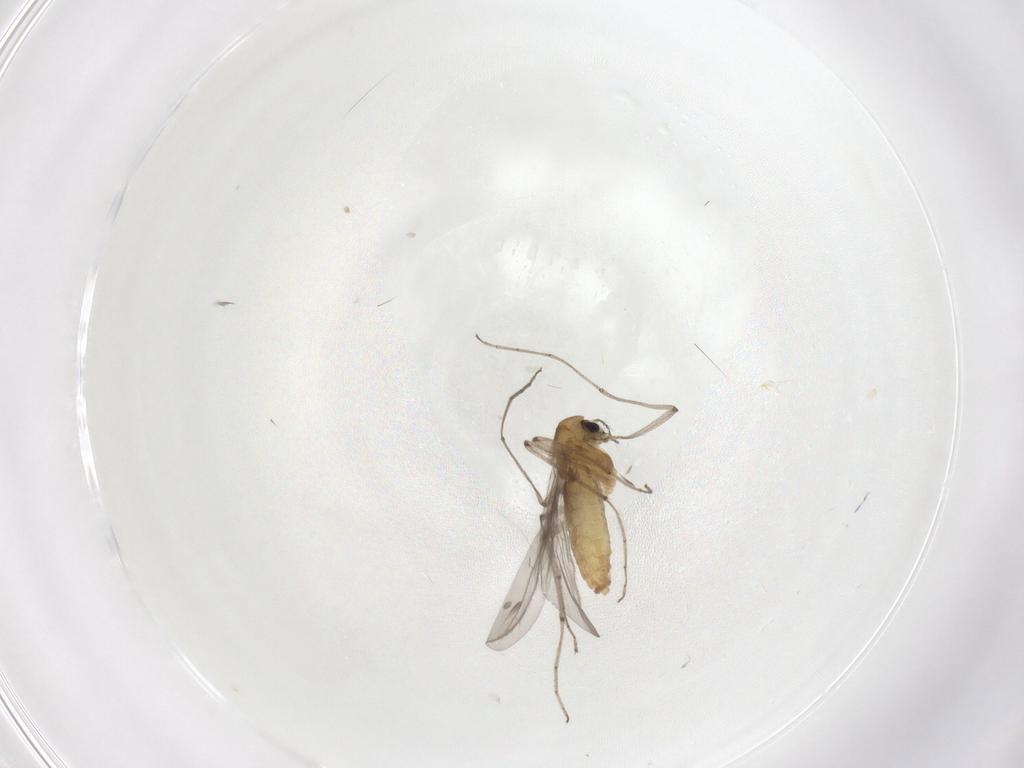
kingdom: Animalia
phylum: Arthropoda
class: Insecta
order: Diptera
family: Chironomidae
